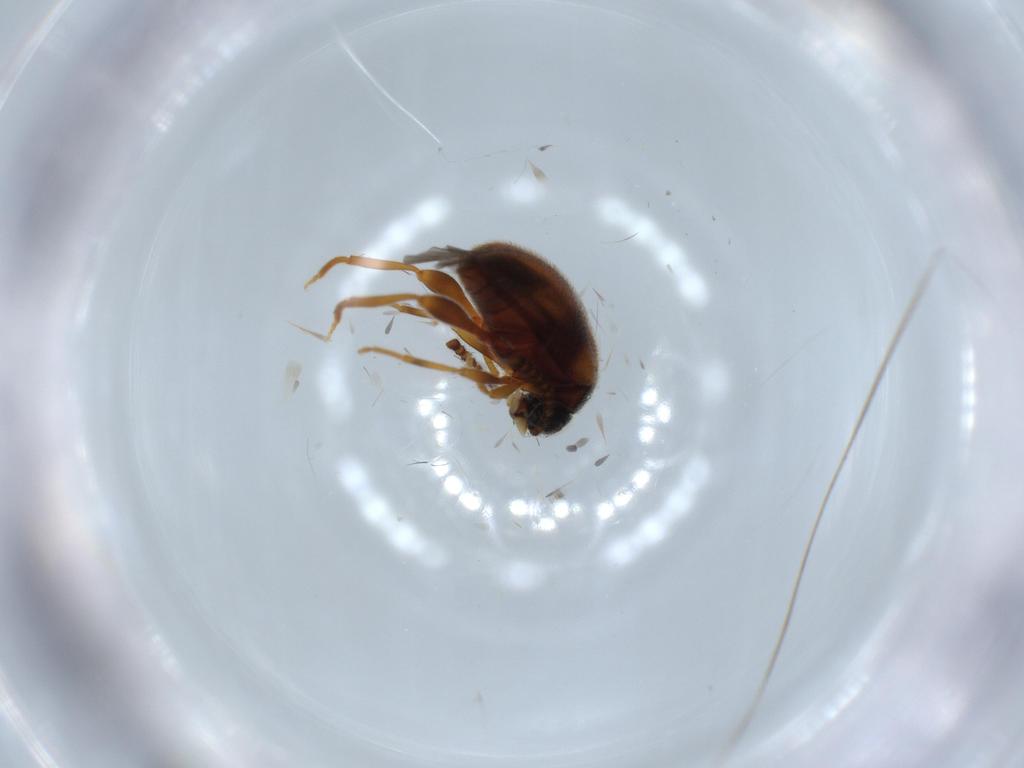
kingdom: Animalia
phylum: Arthropoda
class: Insecta
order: Coleoptera
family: Aderidae
